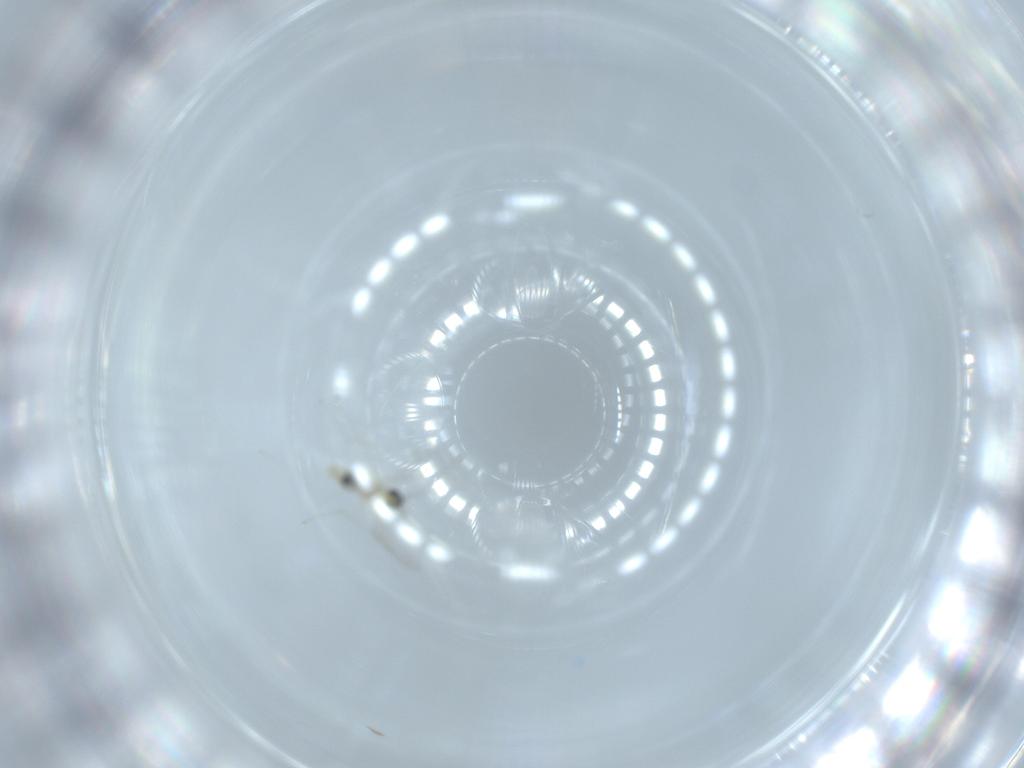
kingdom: Animalia
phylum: Arthropoda
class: Insecta
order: Diptera
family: Cecidomyiidae
